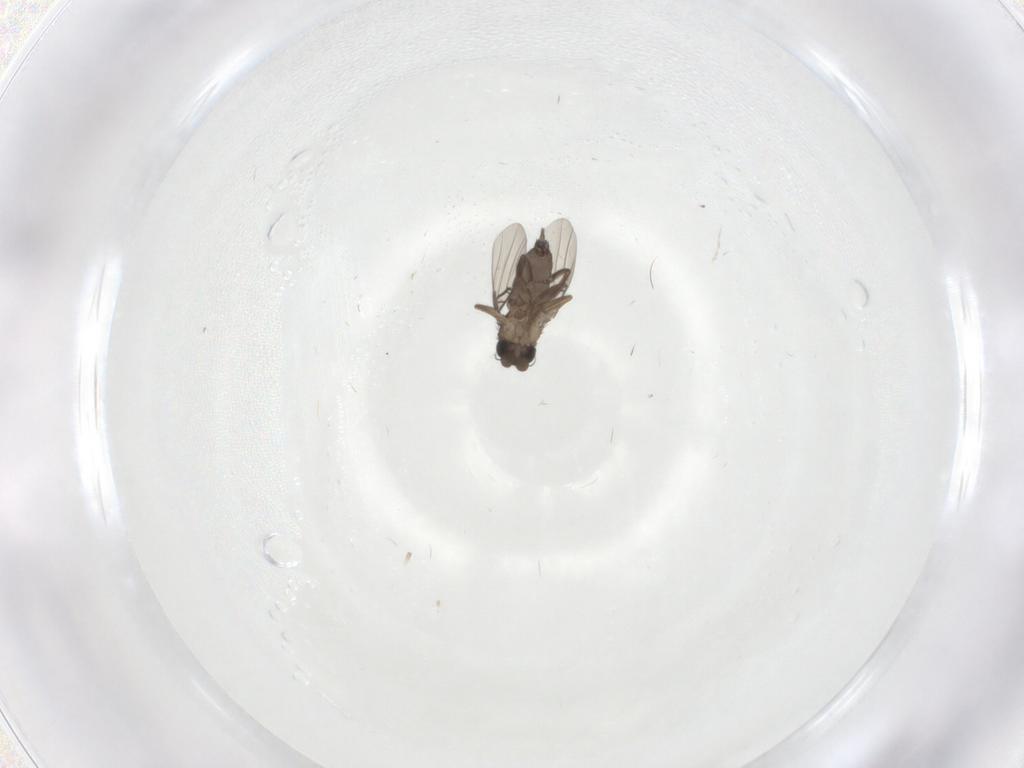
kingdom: Animalia
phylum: Arthropoda
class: Insecta
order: Diptera
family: Phoridae
